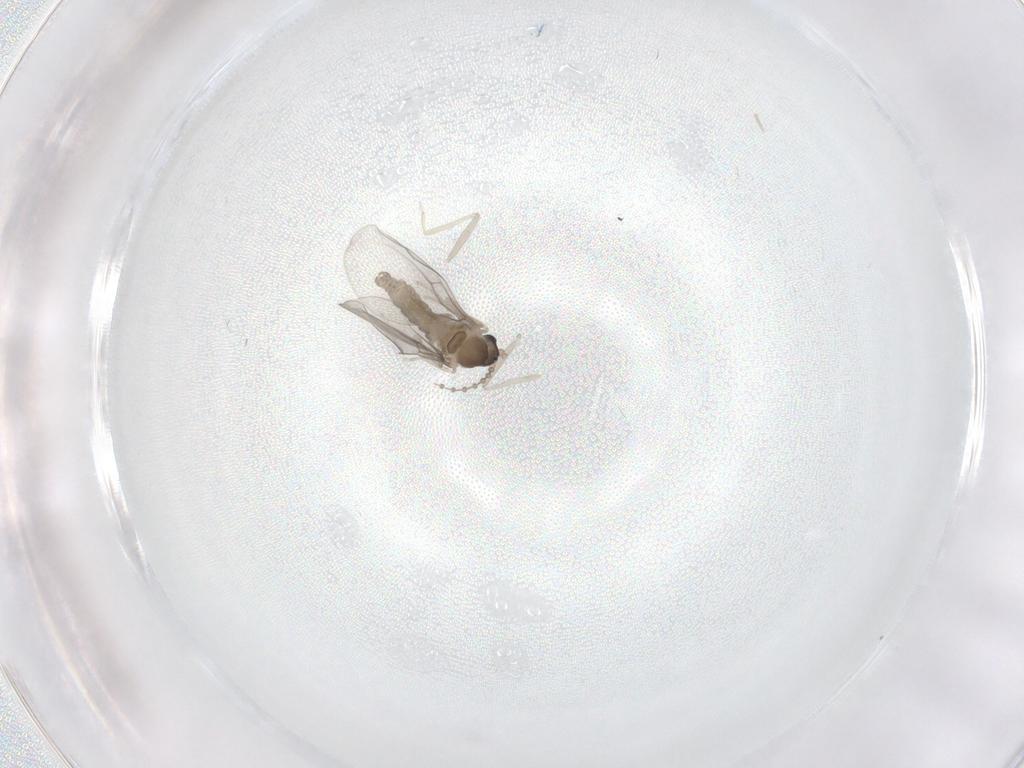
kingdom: Animalia
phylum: Arthropoda
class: Insecta
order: Diptera
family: Cecidomyiidae
